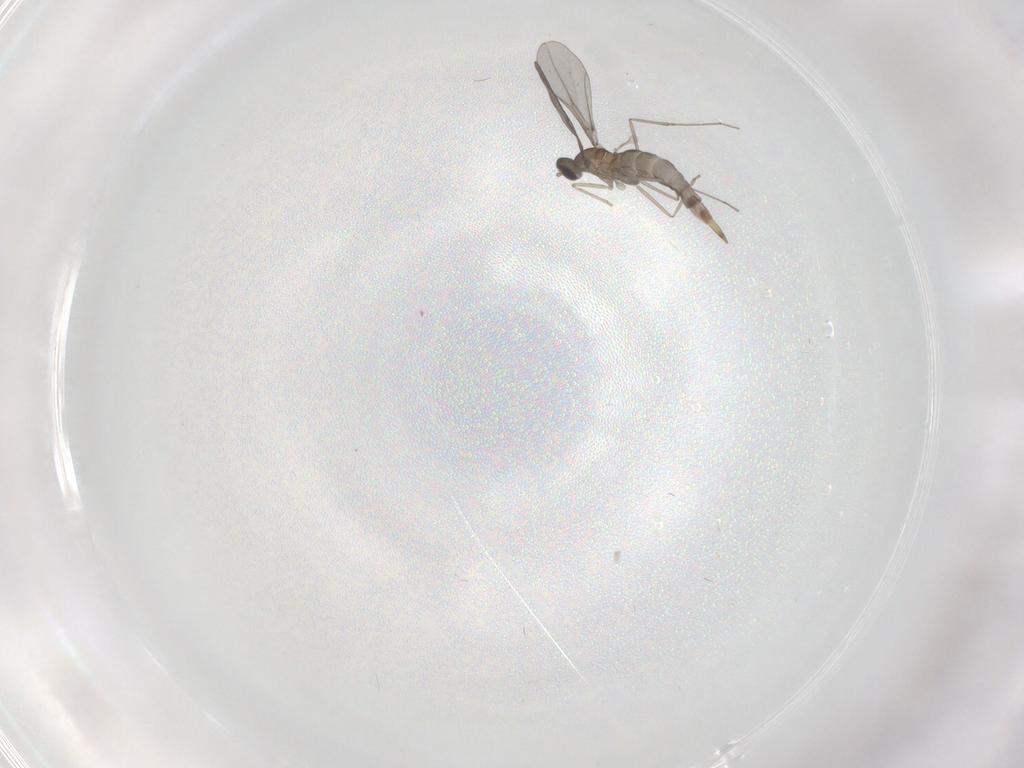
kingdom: Animalia
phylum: Arthropoda
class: Insecta
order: Diptera
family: Cecidomyiidae
